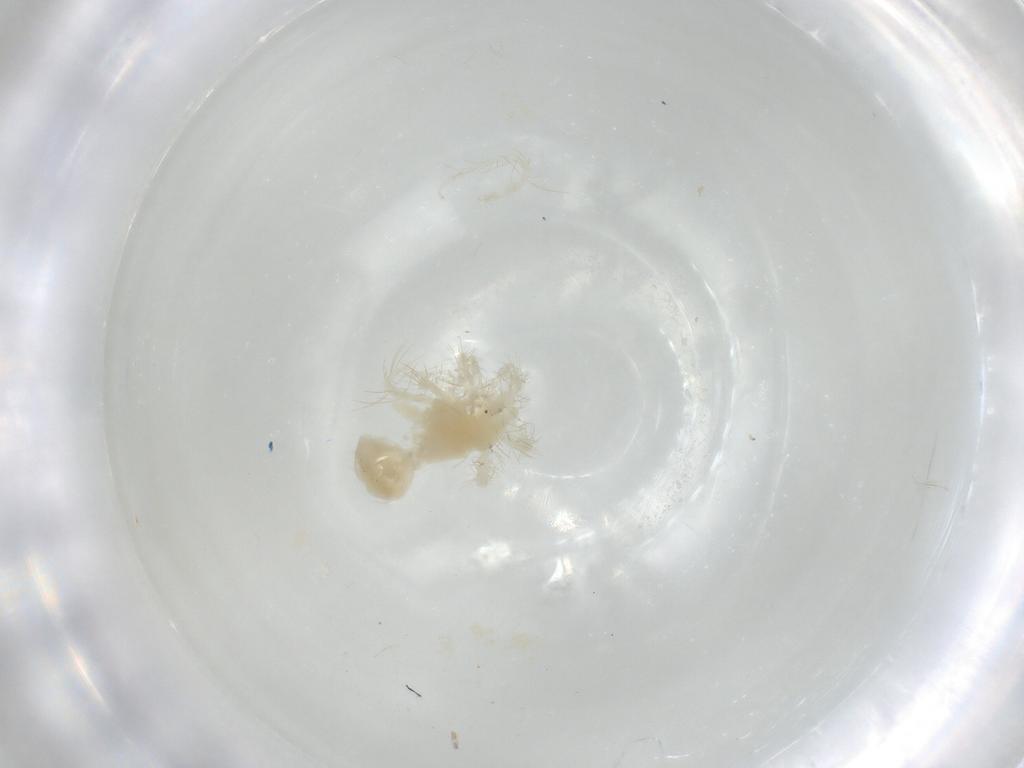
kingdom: Animalia
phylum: Arthropoda
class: Arachnida
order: Trombidiformes
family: Anystidae
